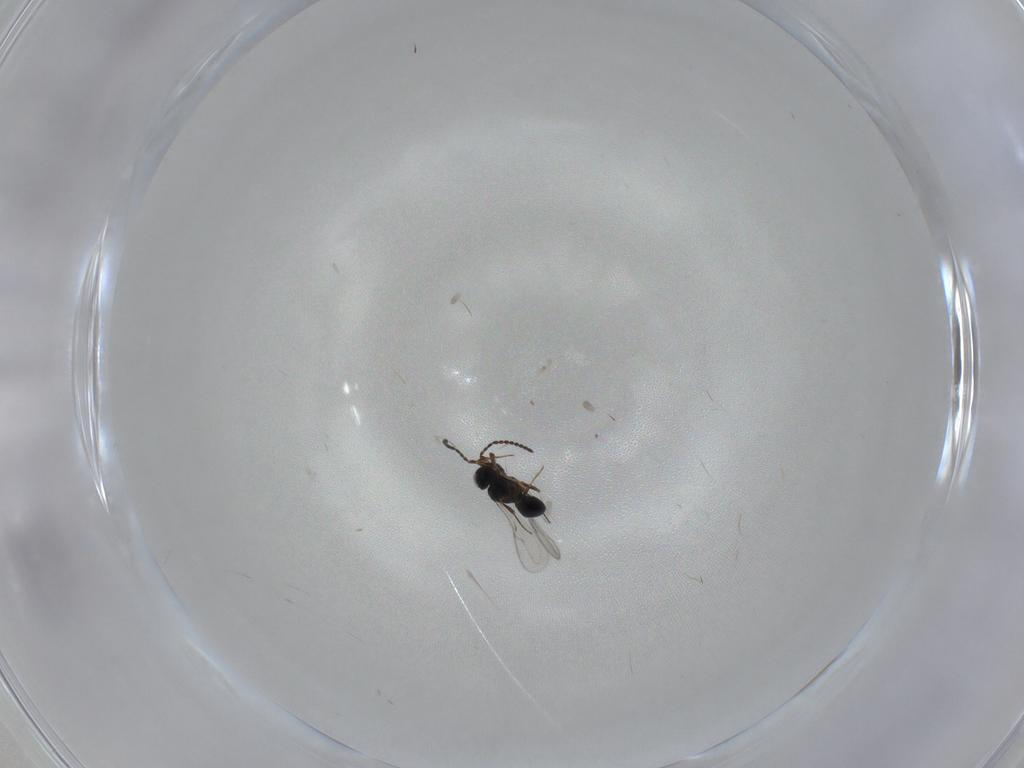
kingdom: Animalia
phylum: Arthropoda
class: Insecta
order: Hymenoptera
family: Scelionidae
